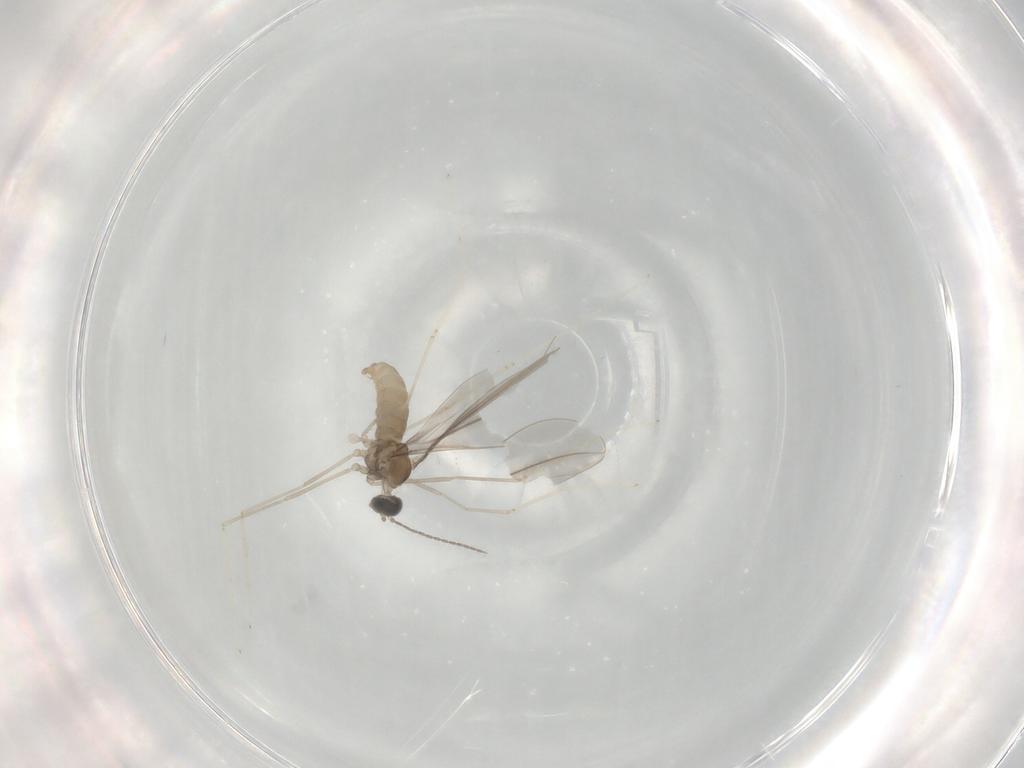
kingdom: Animalia
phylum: Arthropoda
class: Insecta
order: Diptera
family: Cecidomyiidae
